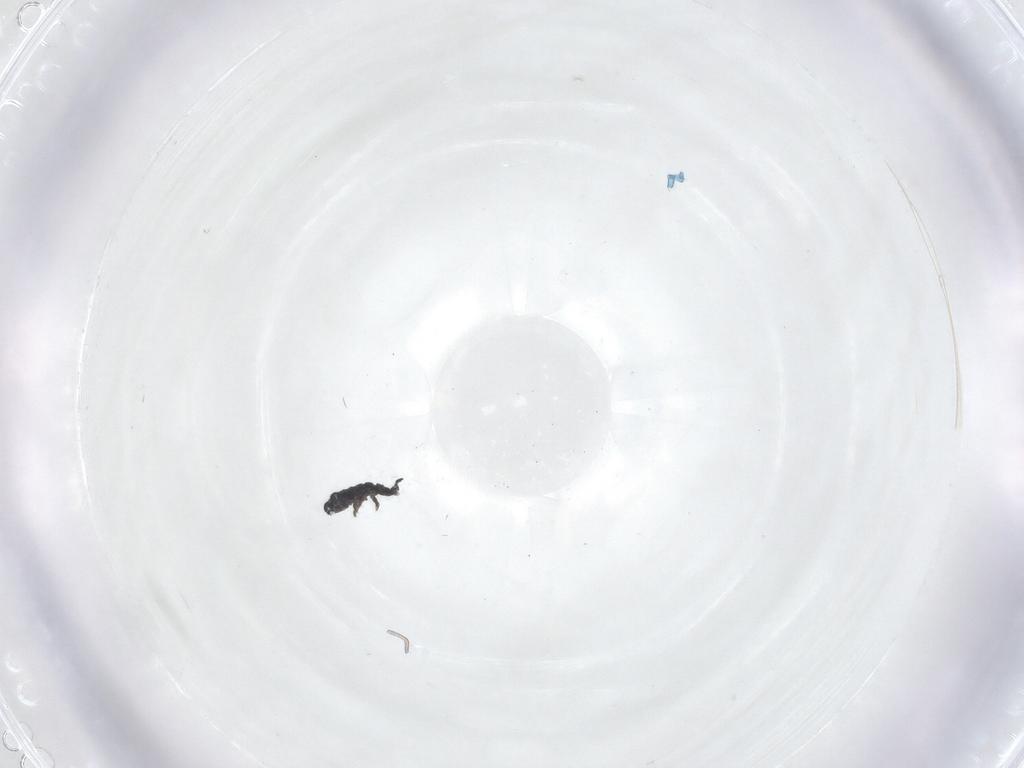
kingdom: Animalia
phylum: Arthropoda
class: Collembola
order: Poduromorpha
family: Hypogastruridae
